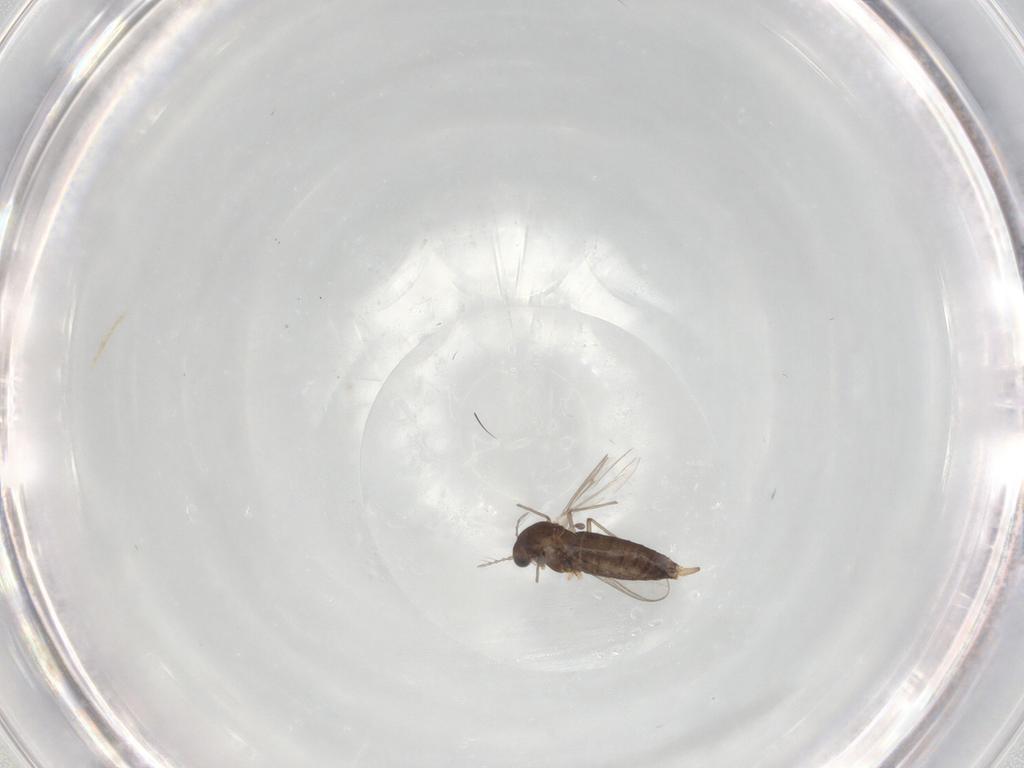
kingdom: Animalia
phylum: Arthropoda
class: Insecta
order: Diptera
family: Chironomidae
